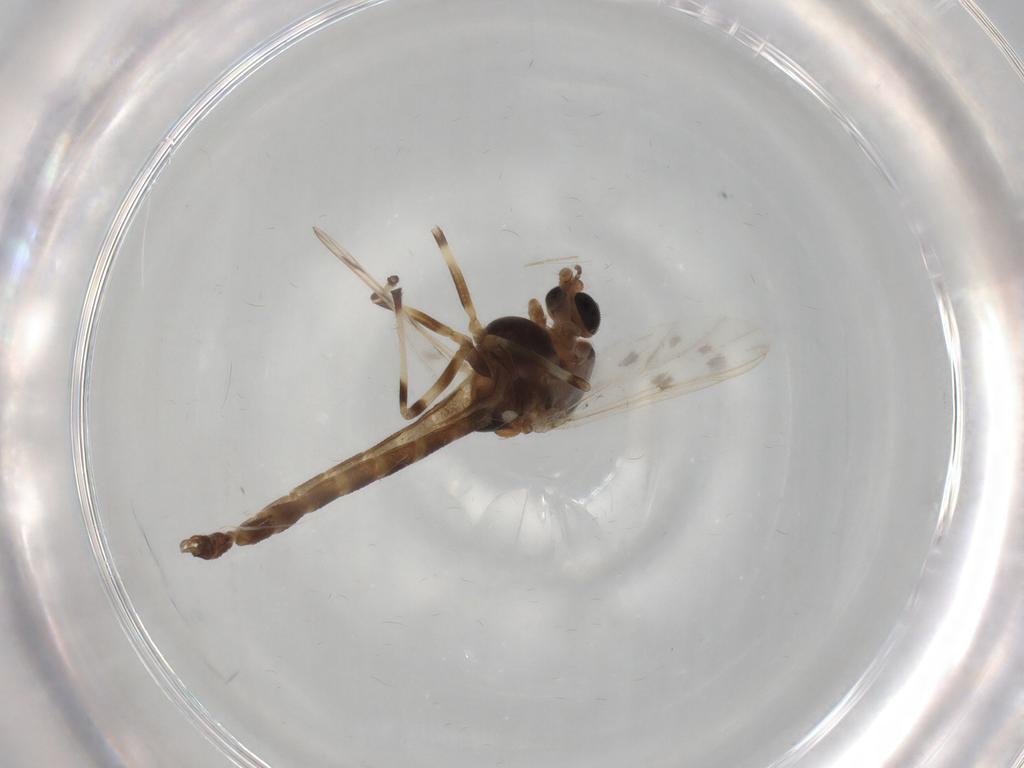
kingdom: Animalia
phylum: Arthropoda
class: Insecta
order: Diptera
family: Chironomidae
